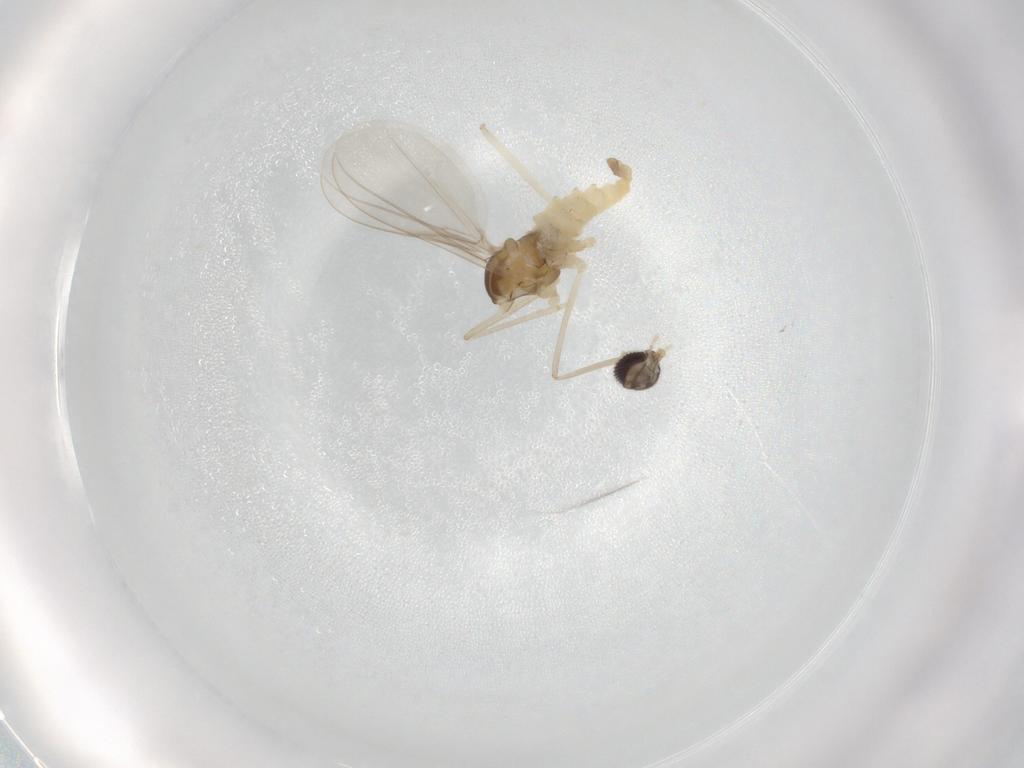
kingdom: Animalia
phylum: Arthropoda
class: Insecta
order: Diptera
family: Cecidomyiidae
